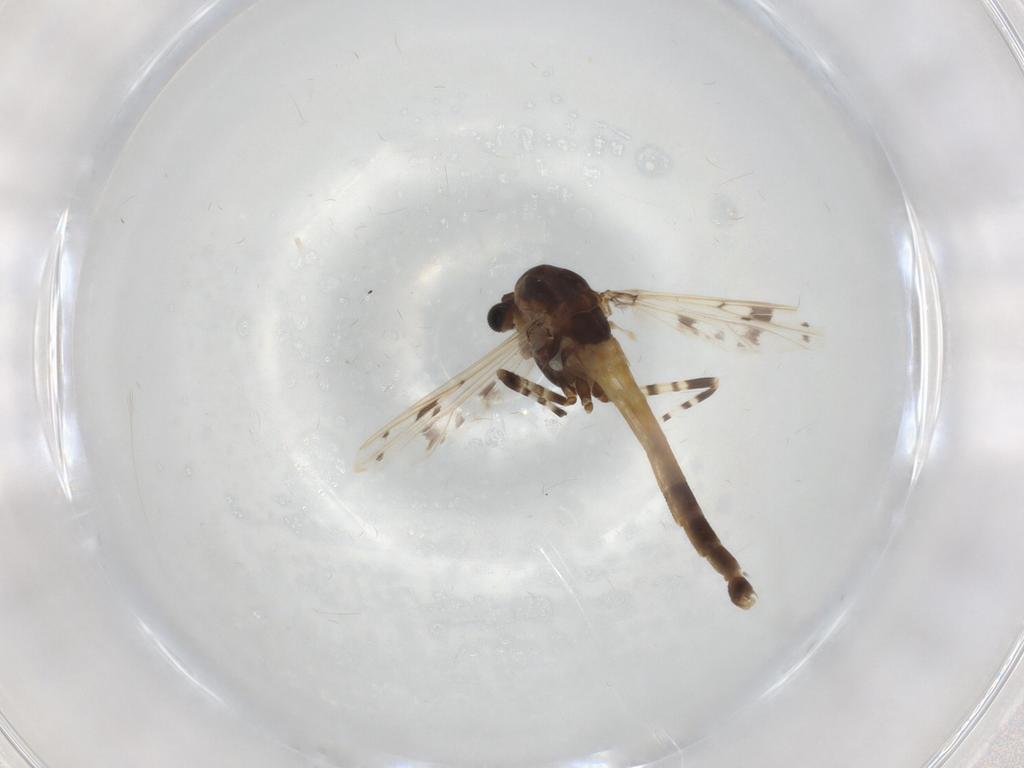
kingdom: Animalia
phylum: Arthropoda
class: Insecta
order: Diptera
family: Chironomidae
